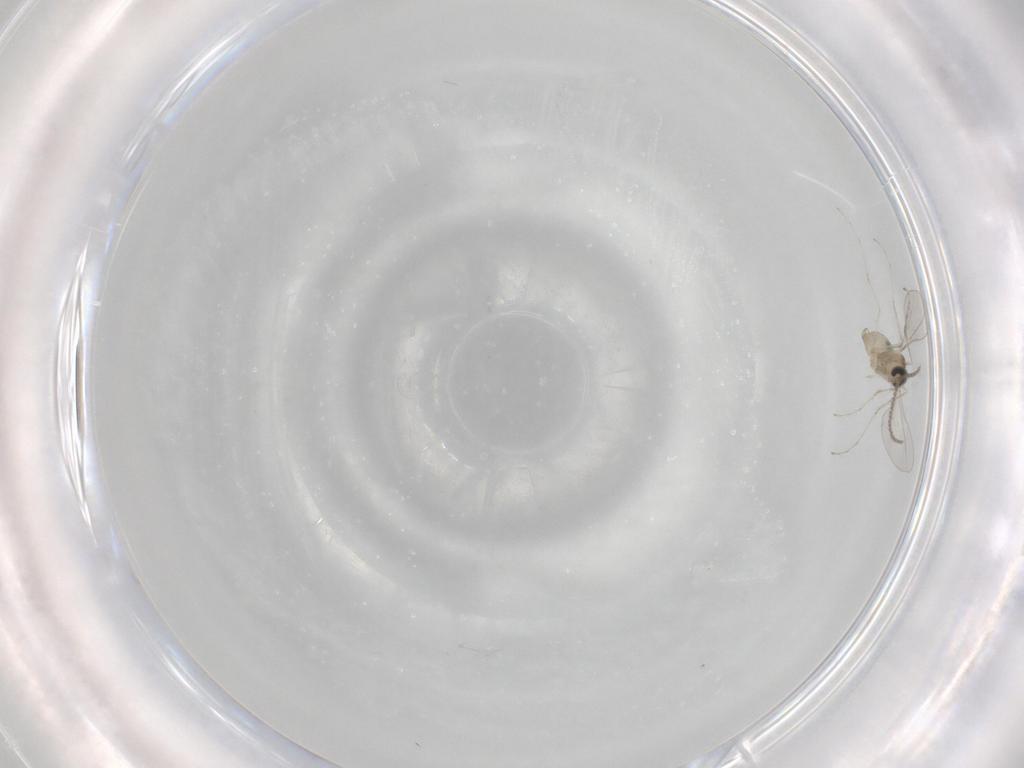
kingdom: Animalia
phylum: Arthropoda
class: Insecta
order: Diptera
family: Cecidomyiidae
